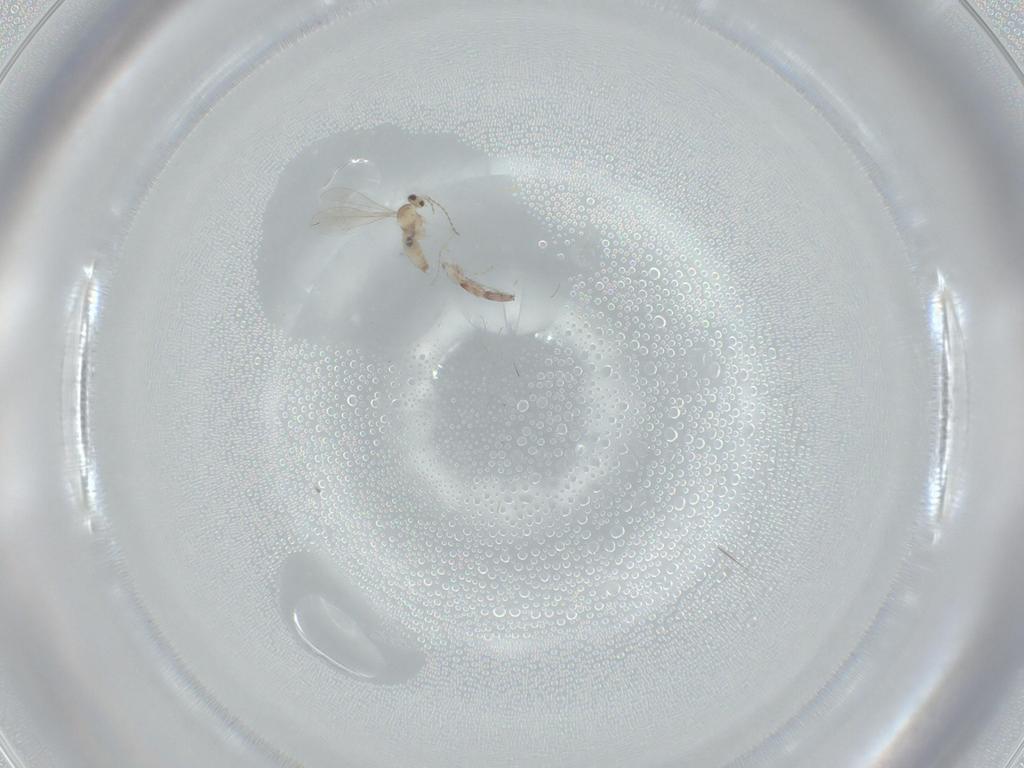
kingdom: Animalia
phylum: Arthropoda
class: Insecta
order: Diptera
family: Cecidomyiidae
